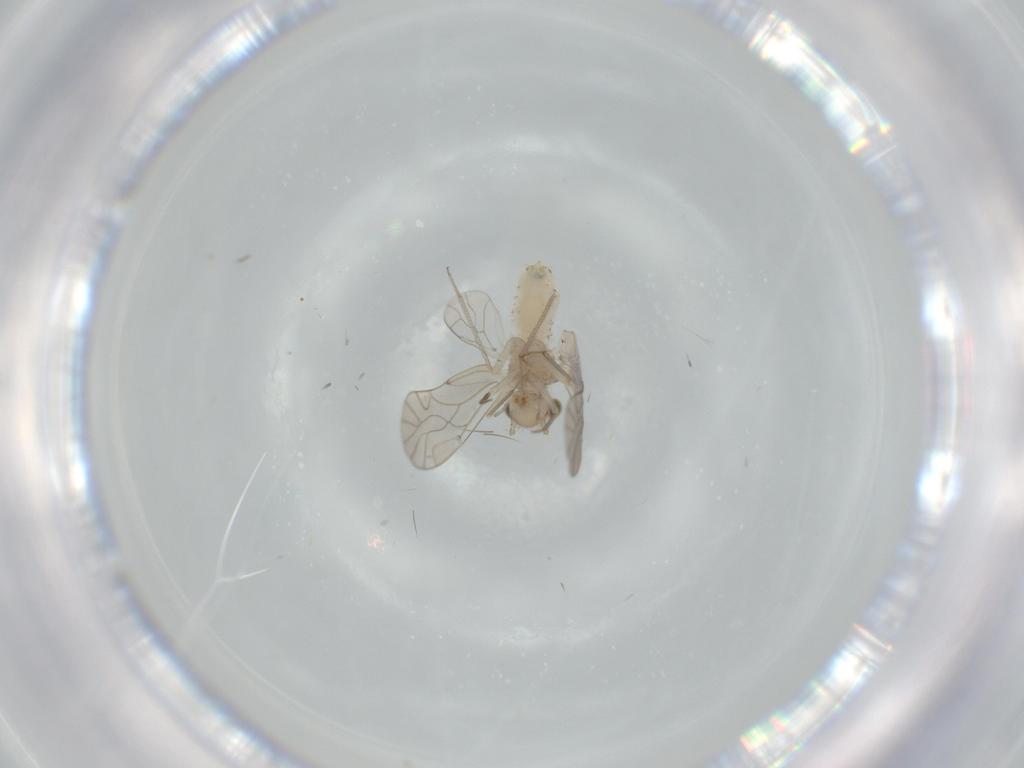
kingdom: Animalia
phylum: Arthropoda
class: Insecta
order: Psocodea
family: Lachesillidae
